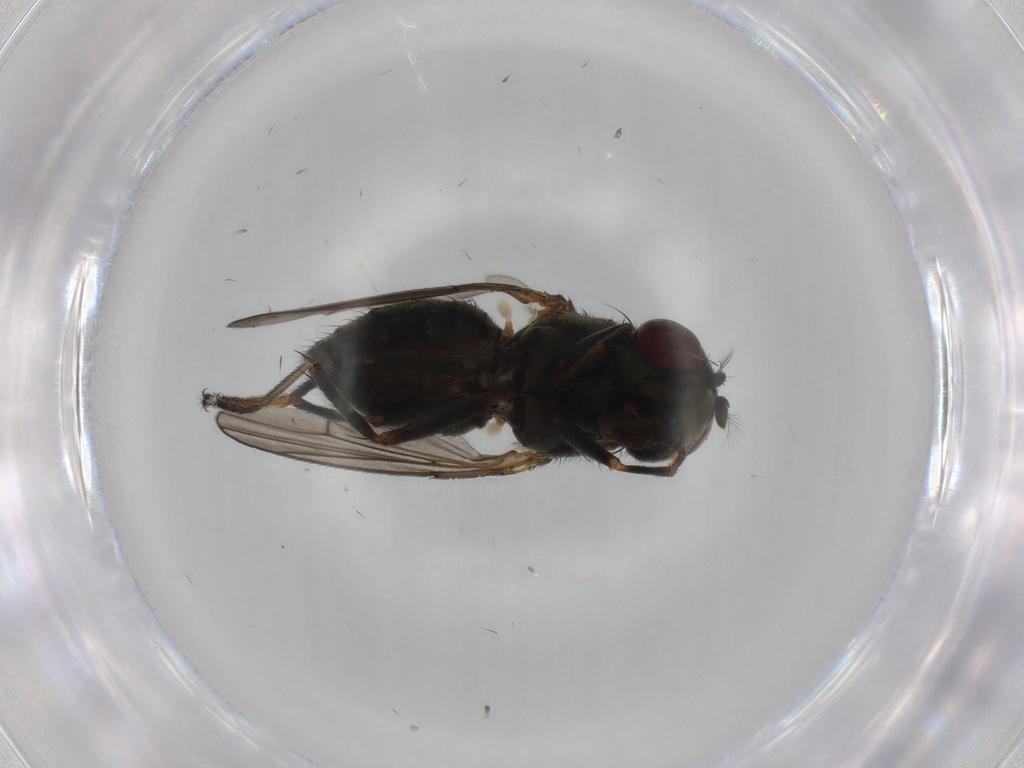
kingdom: Animalia
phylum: Arthropoda
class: Insecta
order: Diptera
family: Ephydridae
